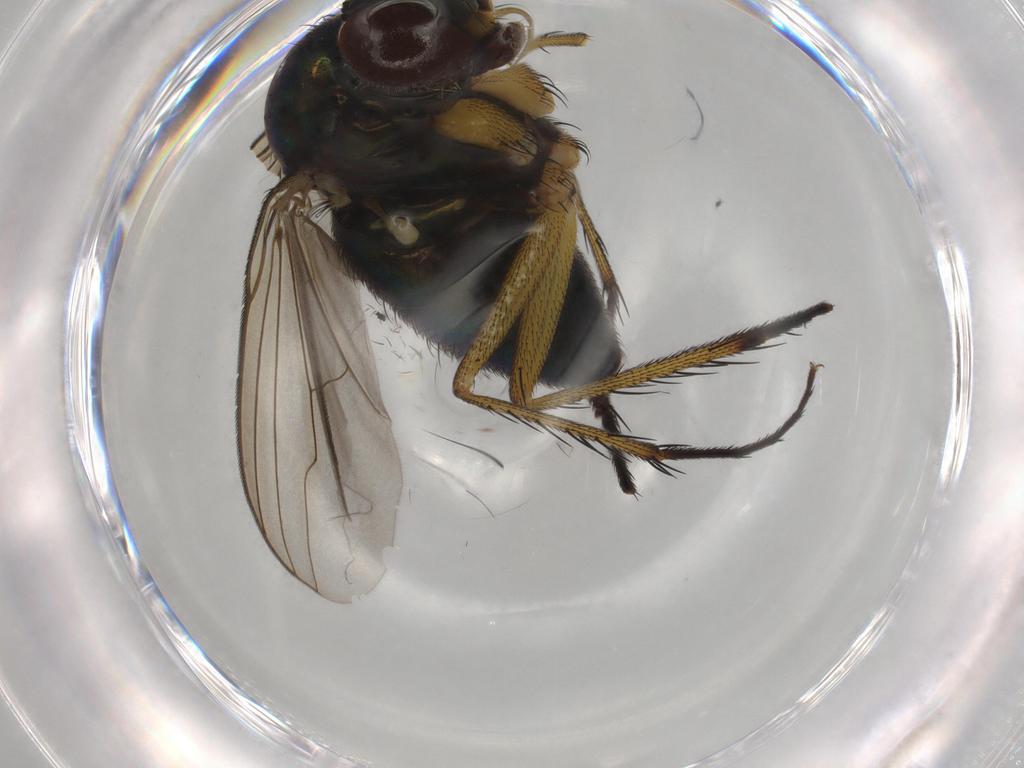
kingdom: Animalia
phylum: Arthropoda
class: Insecta
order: Diptera
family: Dolichopodidae
